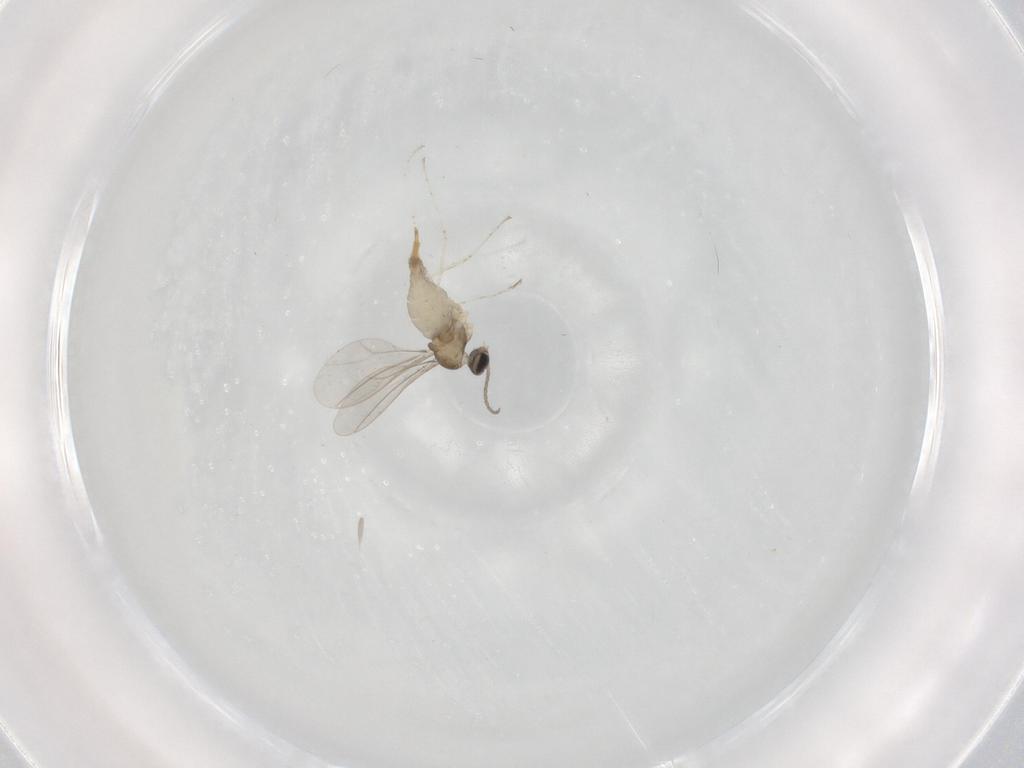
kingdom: Animalia
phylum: Arthropoda
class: Insecta
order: Diptera
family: Cecidomyiidae
